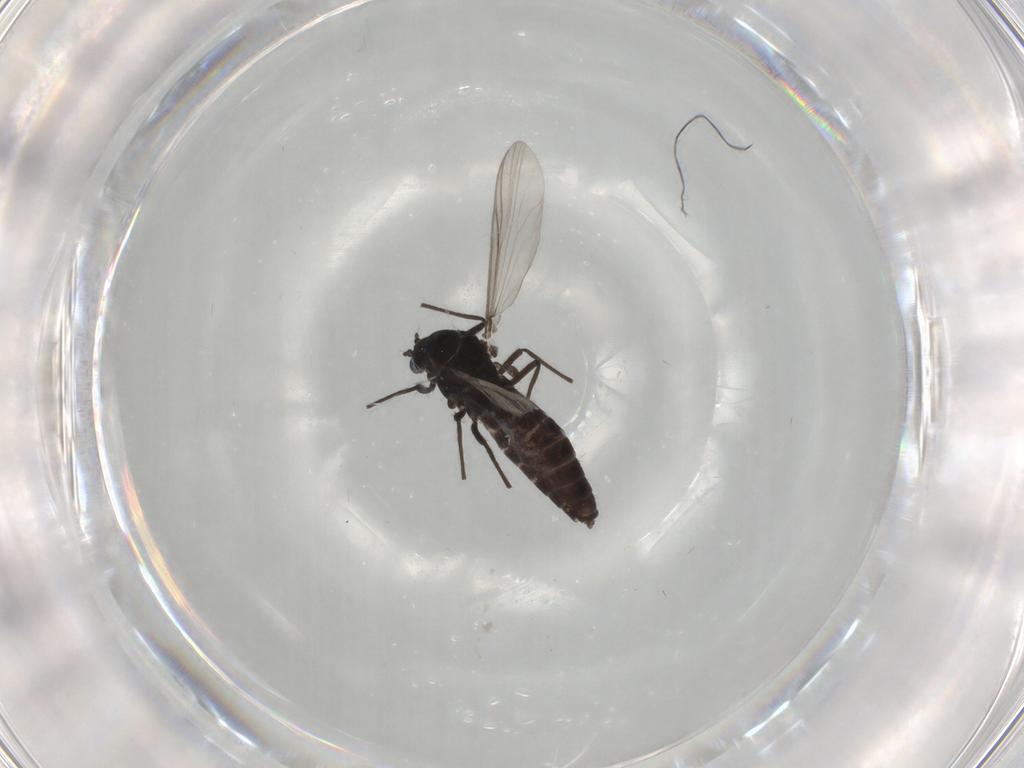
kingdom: Animalia
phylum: Arthropoda
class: Insecta
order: Diptera
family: Chironomidae
